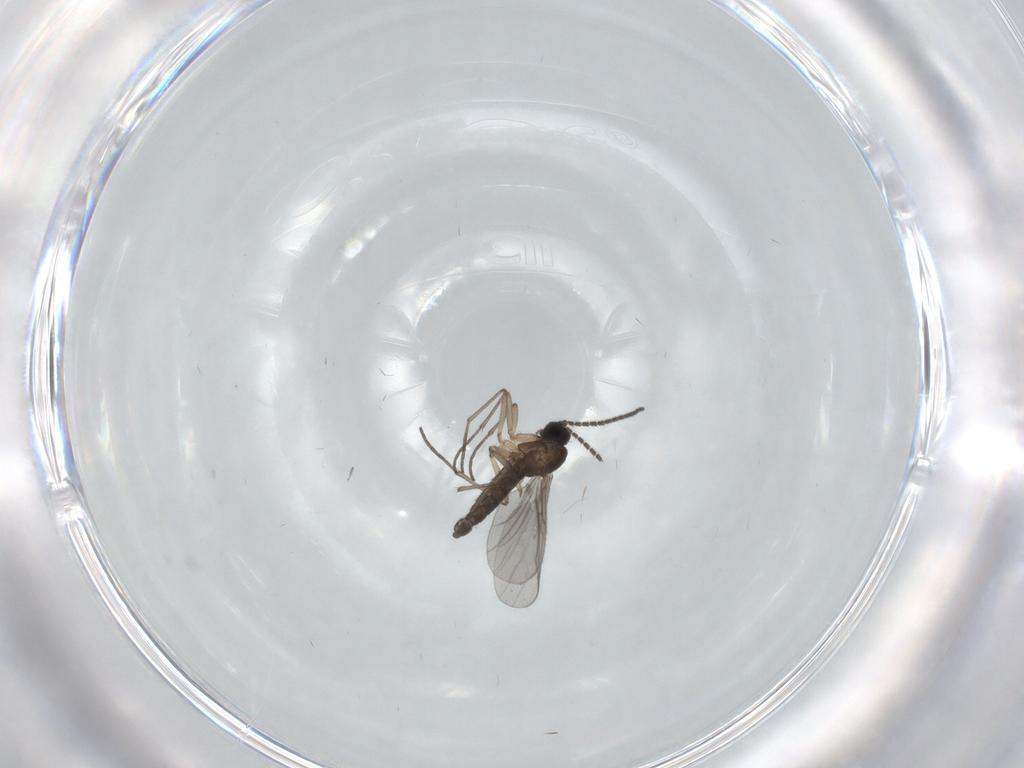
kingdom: Animalia
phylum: Arthropoda
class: Insecta
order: Diptera
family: Sciaridae
